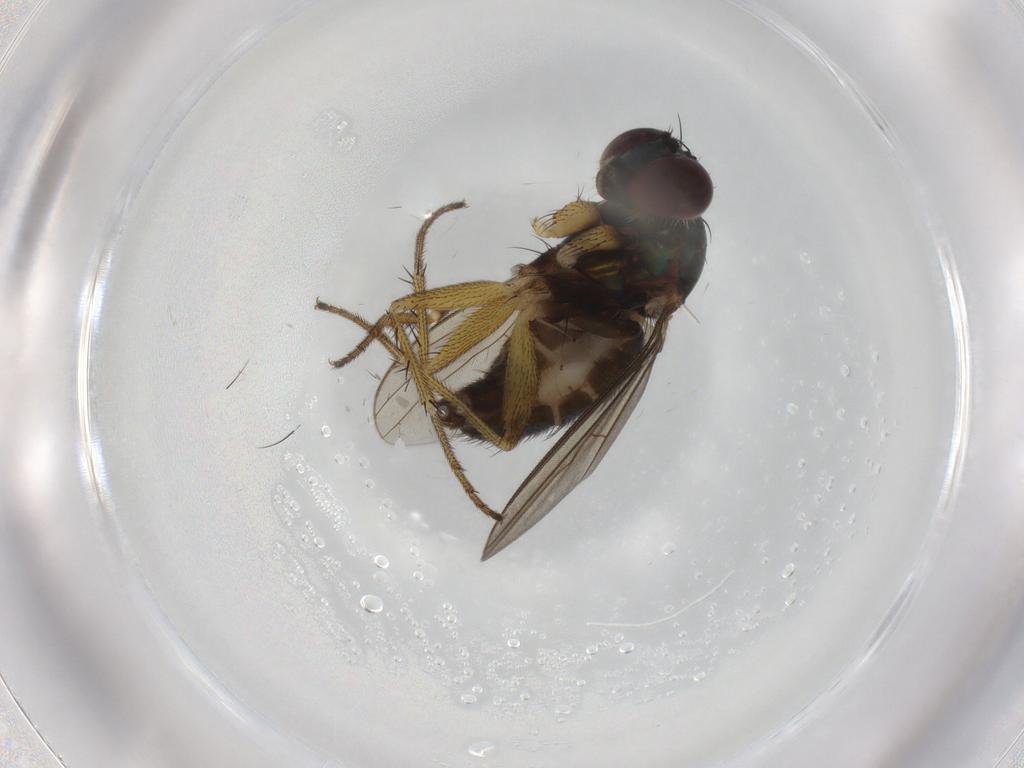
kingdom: Animalia
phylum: Arthropoda
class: Insecta
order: Diptera
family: Dolichopodidae
